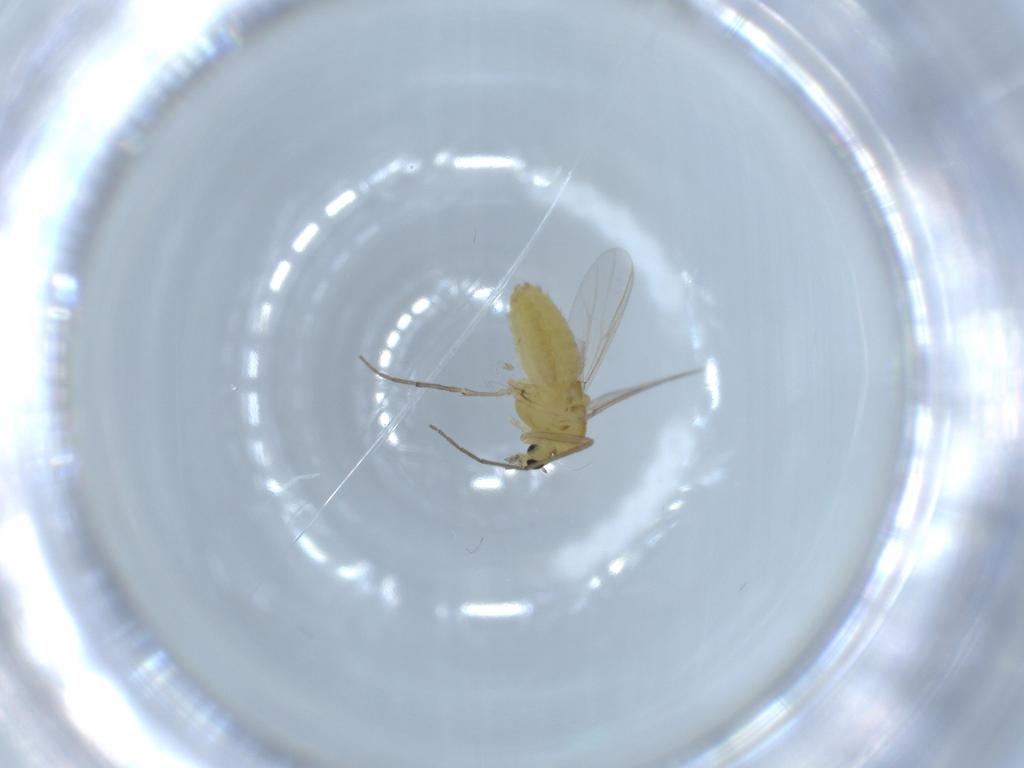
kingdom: Animalia
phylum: Arthropoda
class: Insecta
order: Diptera
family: Chironomidae
